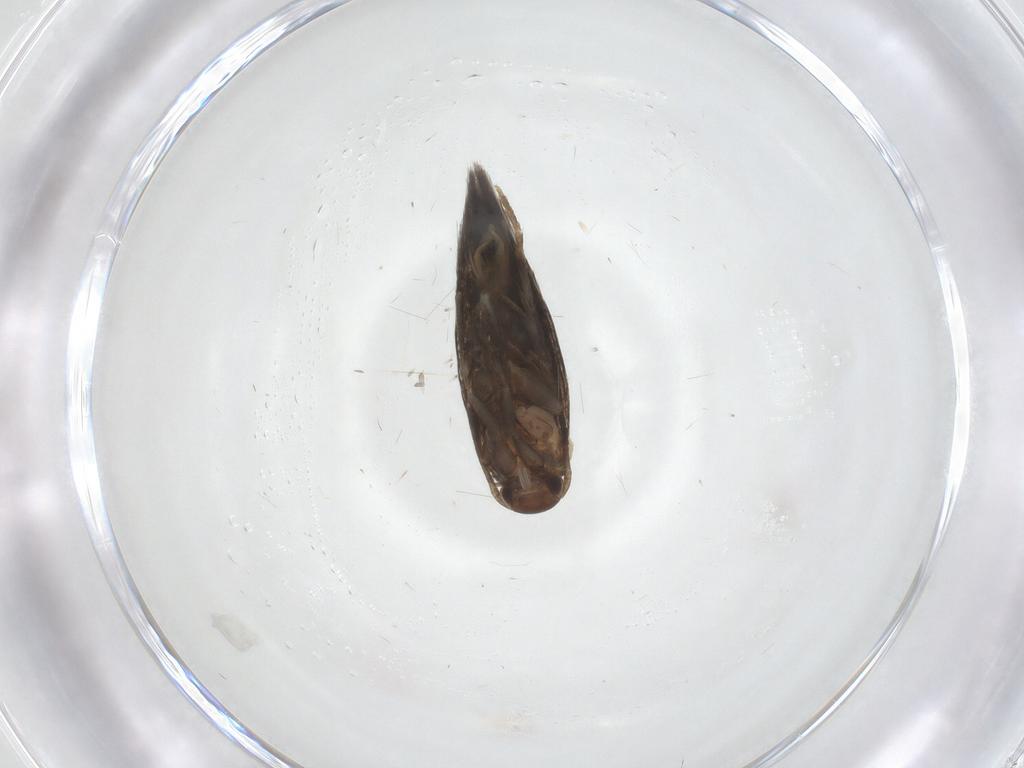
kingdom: Animalia
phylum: Arthropoda
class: Insecta
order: Lepidoptera
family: Elachistidae
